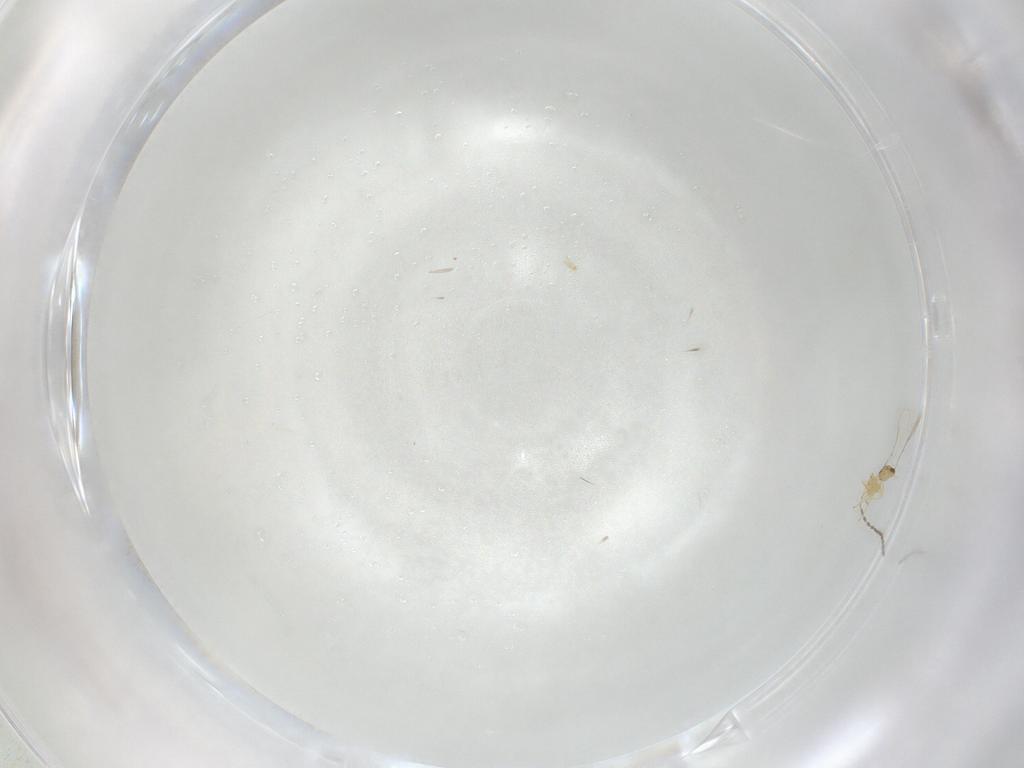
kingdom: Animalia
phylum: Arthropoda
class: Insecta
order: Diptera
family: Cecidomyiidae
